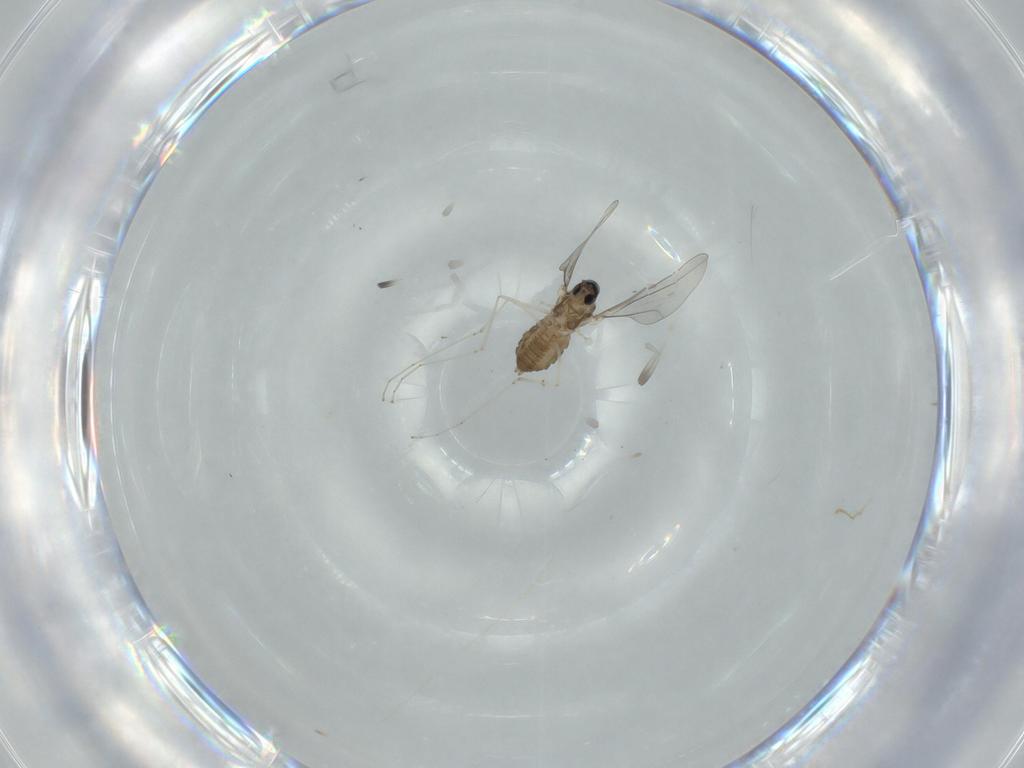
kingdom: Animalia
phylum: Arthropoda
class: Insecta
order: Diptera
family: Cecidomyiidae
